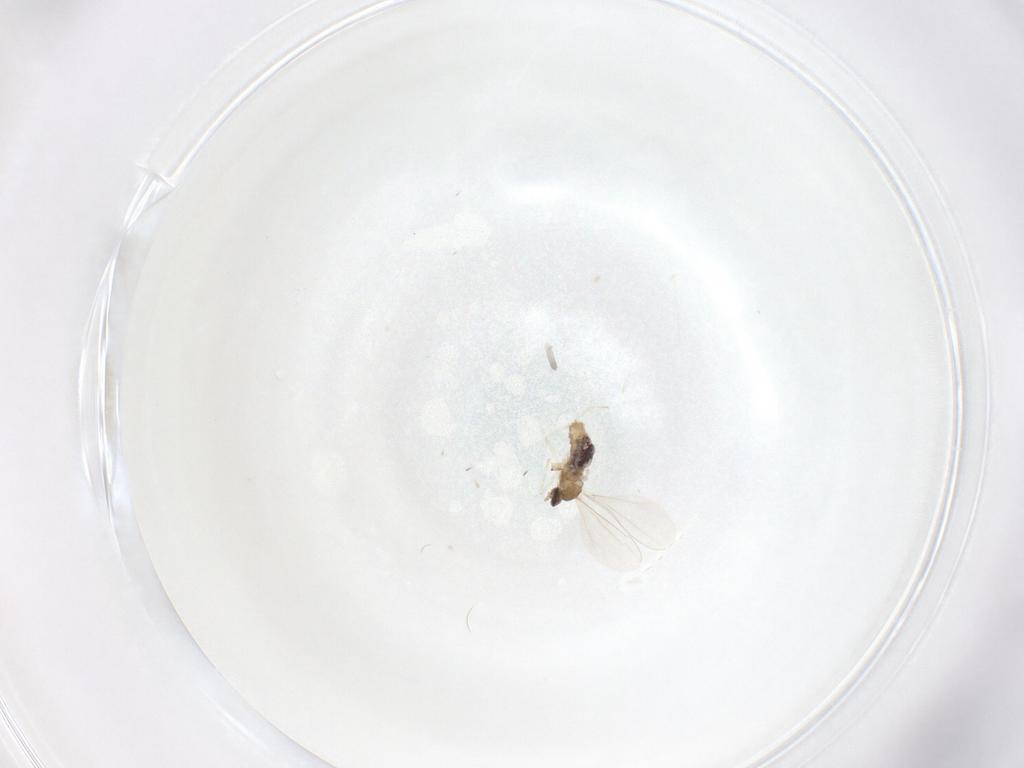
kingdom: Animalia
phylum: Arthropoda
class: Insecta
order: Diptera
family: Cecidomyiidae
